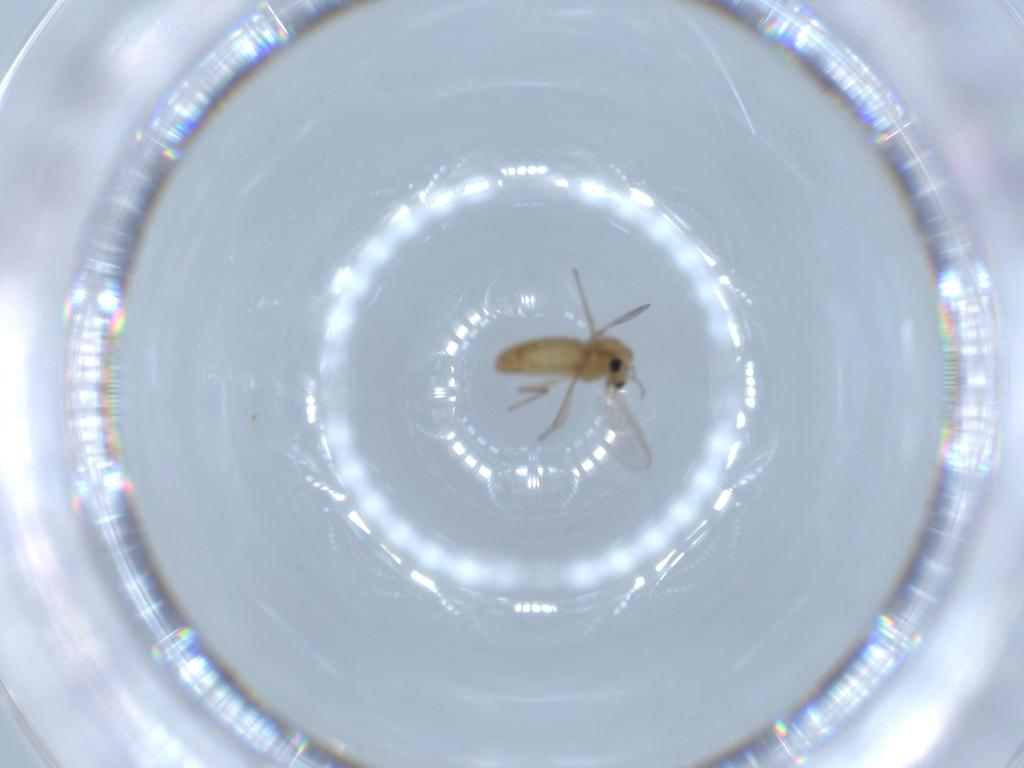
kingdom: Animalia
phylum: Arthropoda
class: Insecta
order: Diptera
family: Chironomidae
